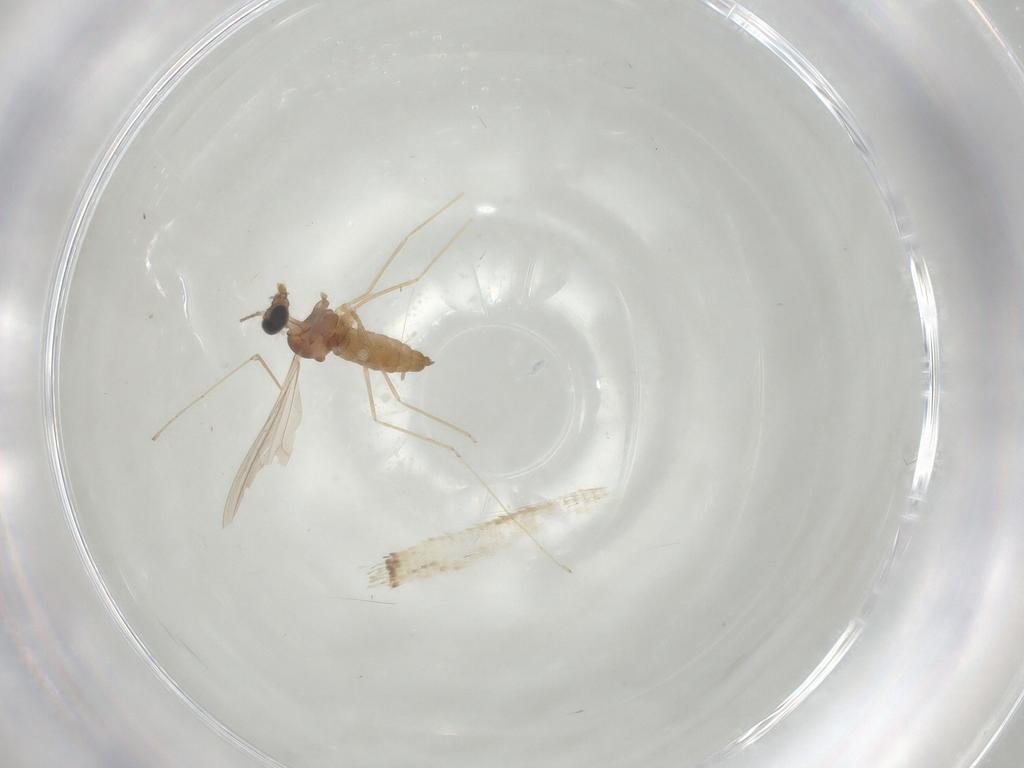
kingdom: Animalia
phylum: Arthropoda
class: Insecta
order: Diptera
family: Cecidomyiidae
